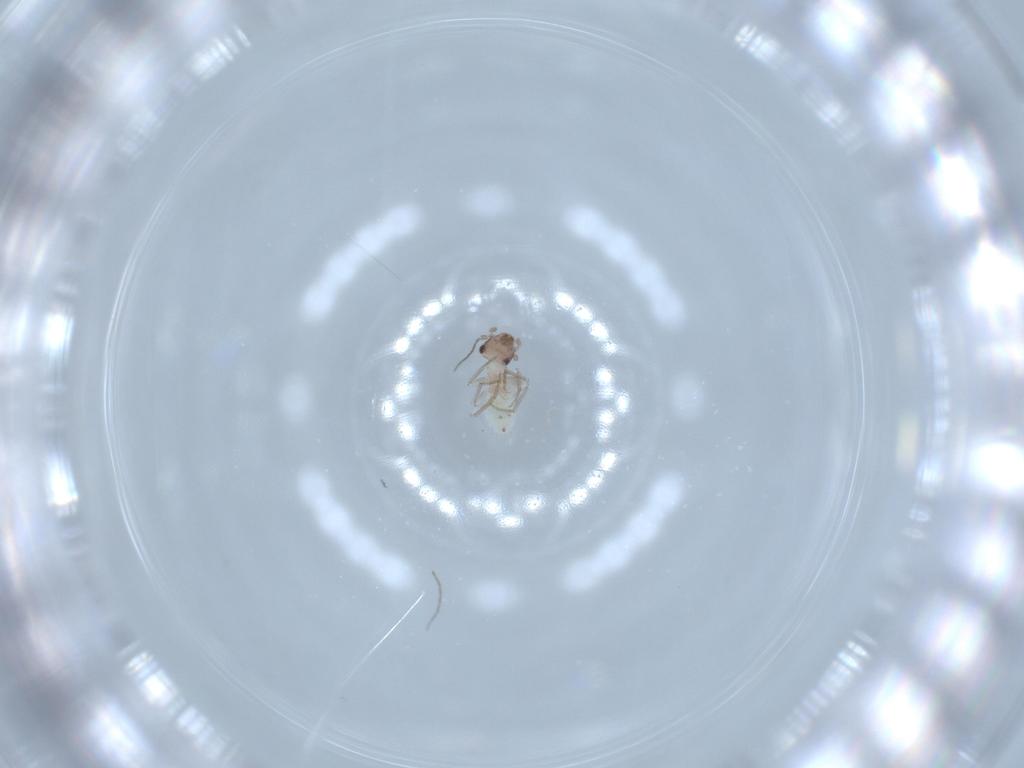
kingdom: Animalia
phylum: Arthropoda
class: Insecta
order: Psocodea
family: Lepidopsocidae
